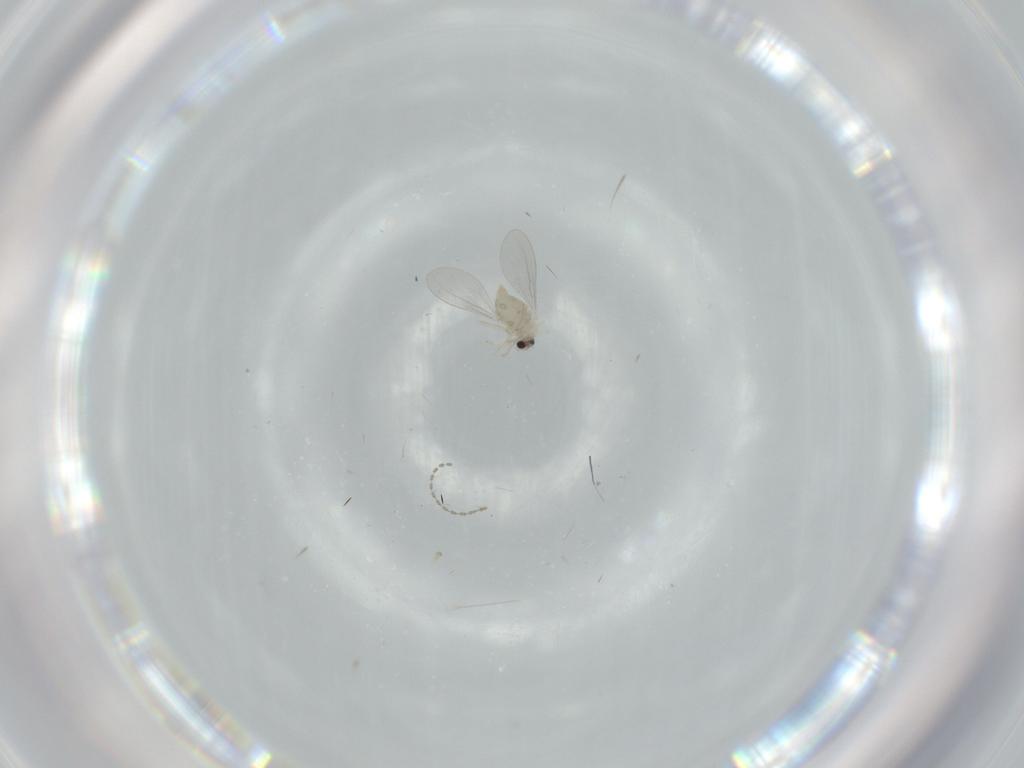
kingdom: Animalia
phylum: Arthropoda
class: Insecta
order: Diptera
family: Cecidomyiidae
